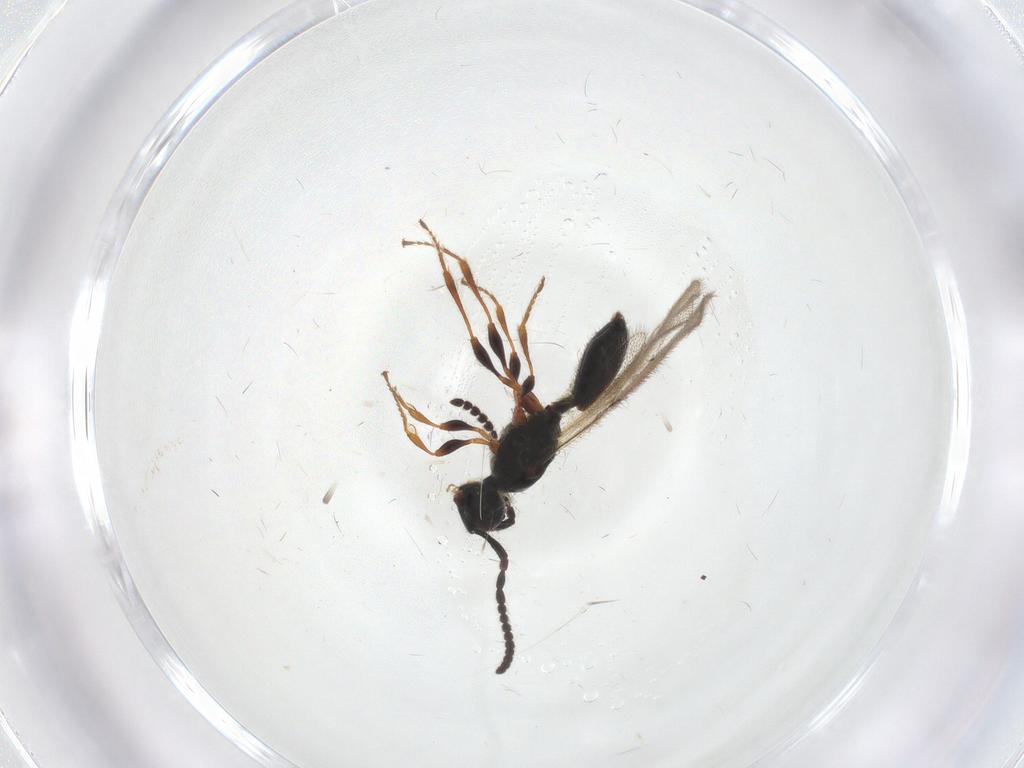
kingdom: Animalia
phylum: Arthropoda
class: Insecta
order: Hymenoptera
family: Diapriidae
